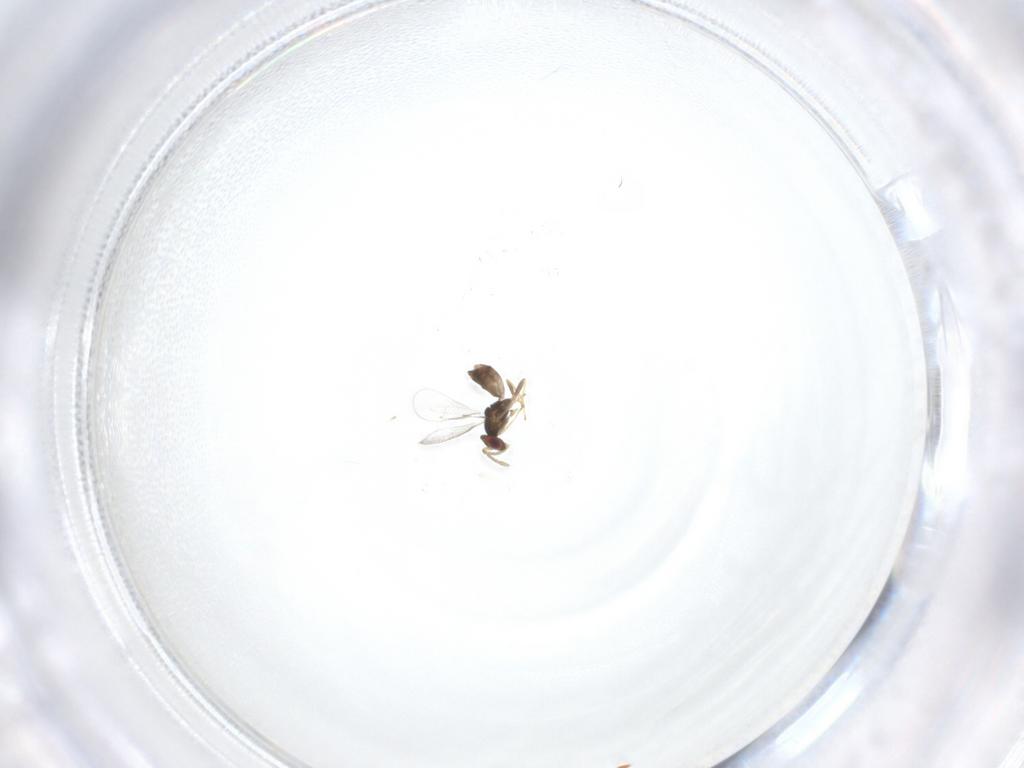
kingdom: Animalia
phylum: Arthropoda
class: Insecta
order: Hymenoptera
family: Eulophidae
